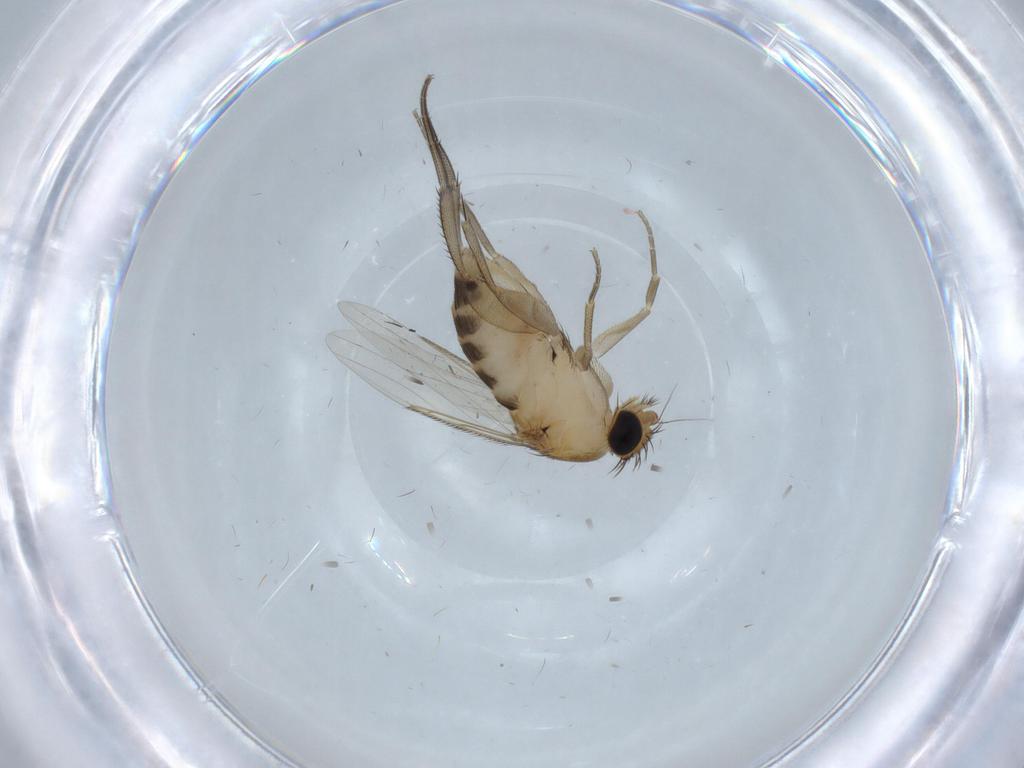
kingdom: Animalia
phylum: Arthropoda
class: Insecta
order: Diptera
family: Phoridae
